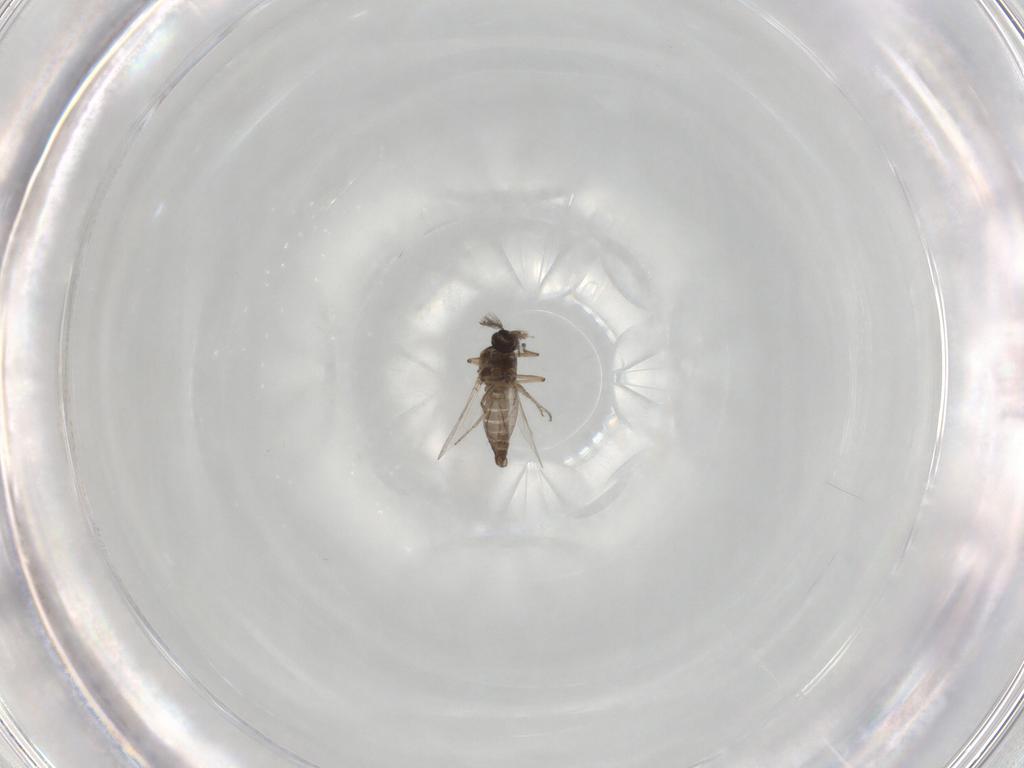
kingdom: Animalia
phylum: Arthropoda
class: Insecta
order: Diptera
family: Ceratopogonidae
